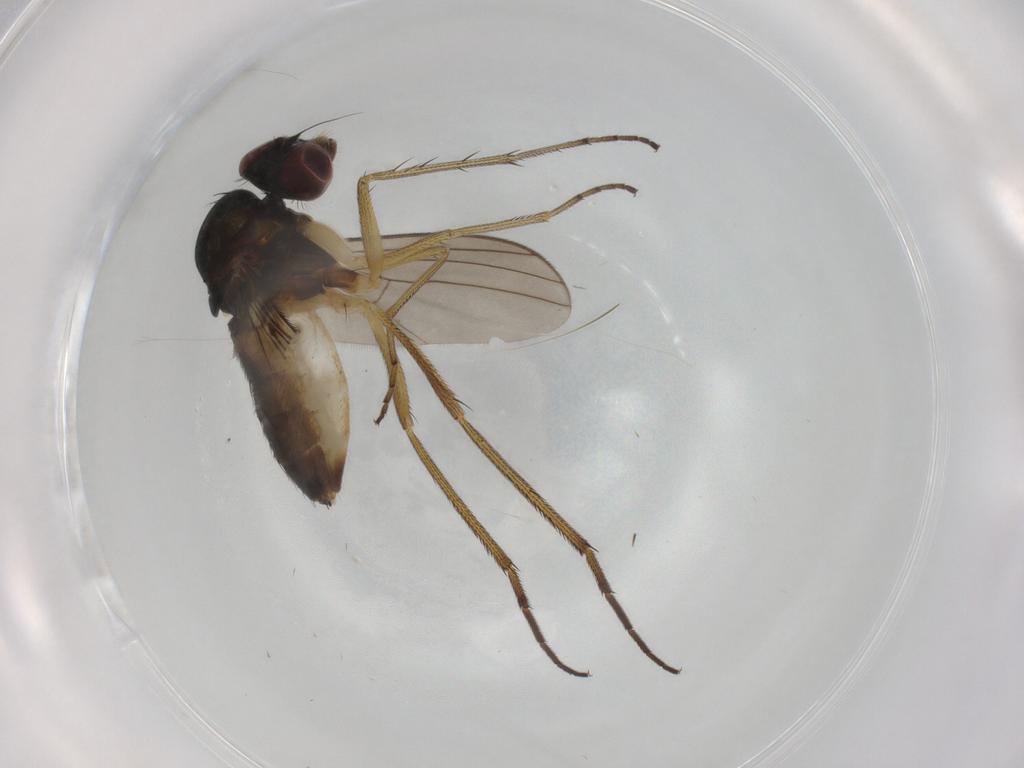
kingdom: Animalia
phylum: Arthropoda
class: Insecta
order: Diptera
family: Dolichopodidae
